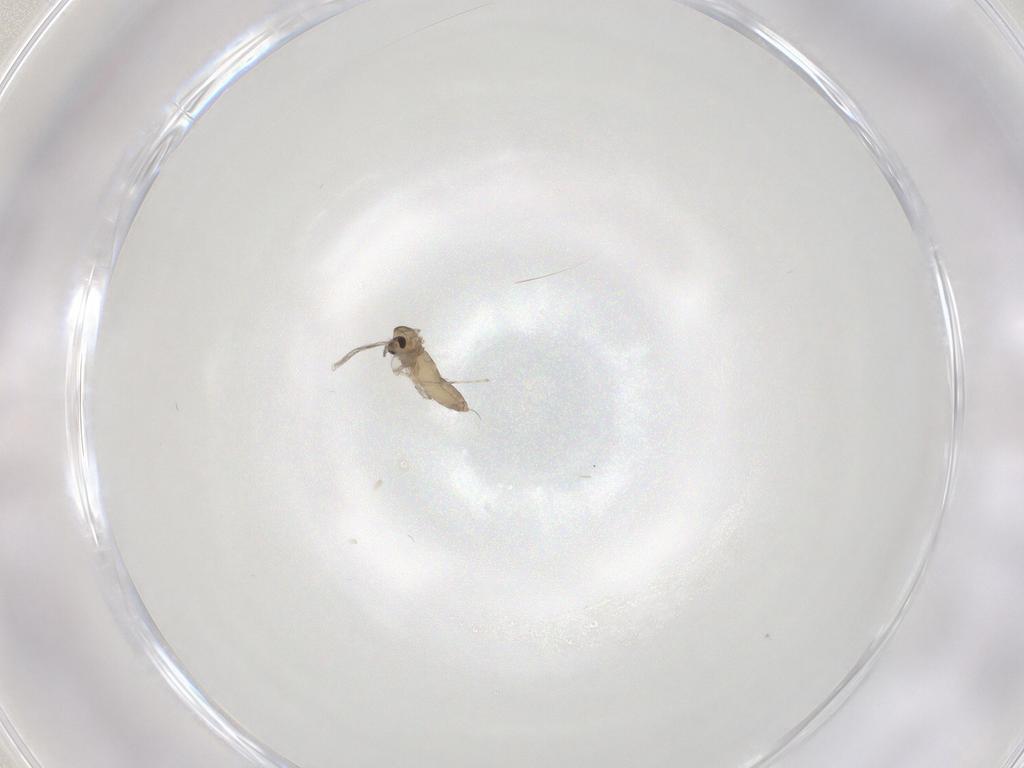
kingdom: Animalia
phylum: Arthropoda
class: Insecta
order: Diptera
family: Chironomidae
